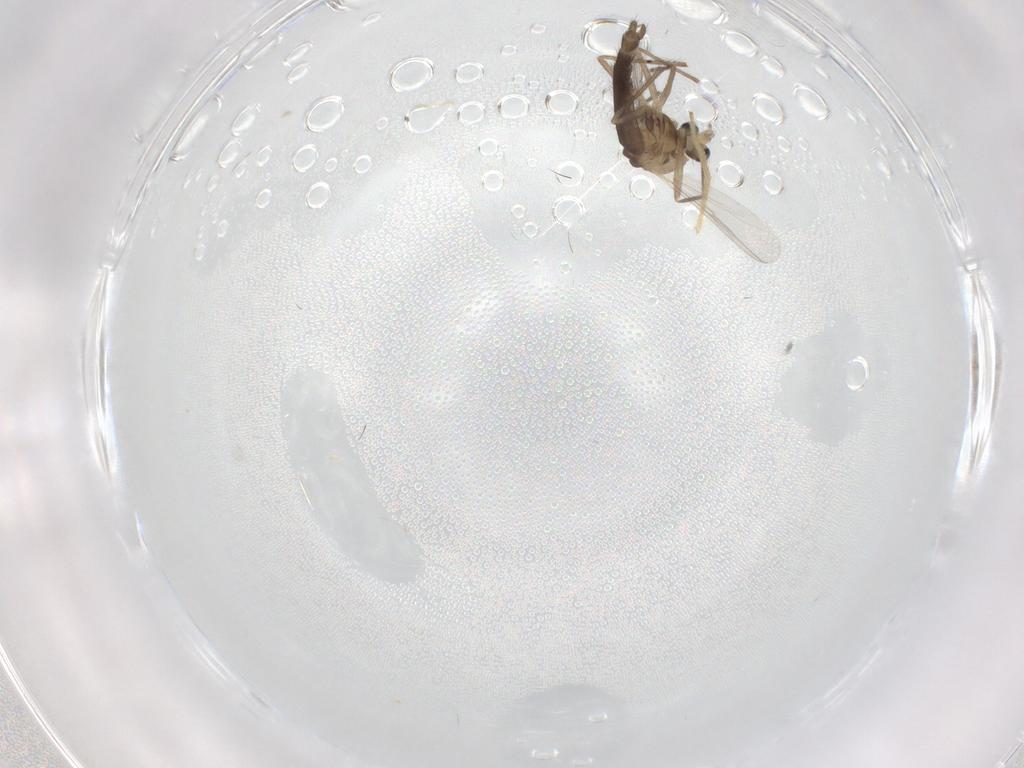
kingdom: Animalia
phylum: Arthropoda
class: Insecta
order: Diptera
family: Chironomidae
